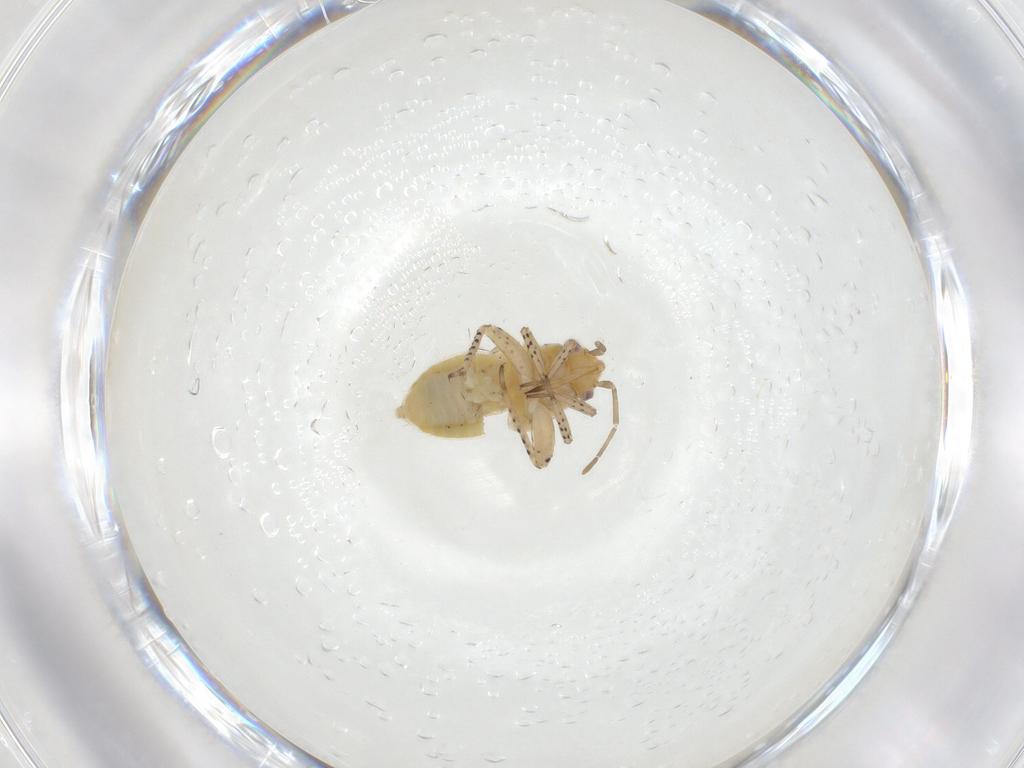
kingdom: Animalia
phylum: Arthropoda
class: Insecta
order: Hemiptera
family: Miridae
